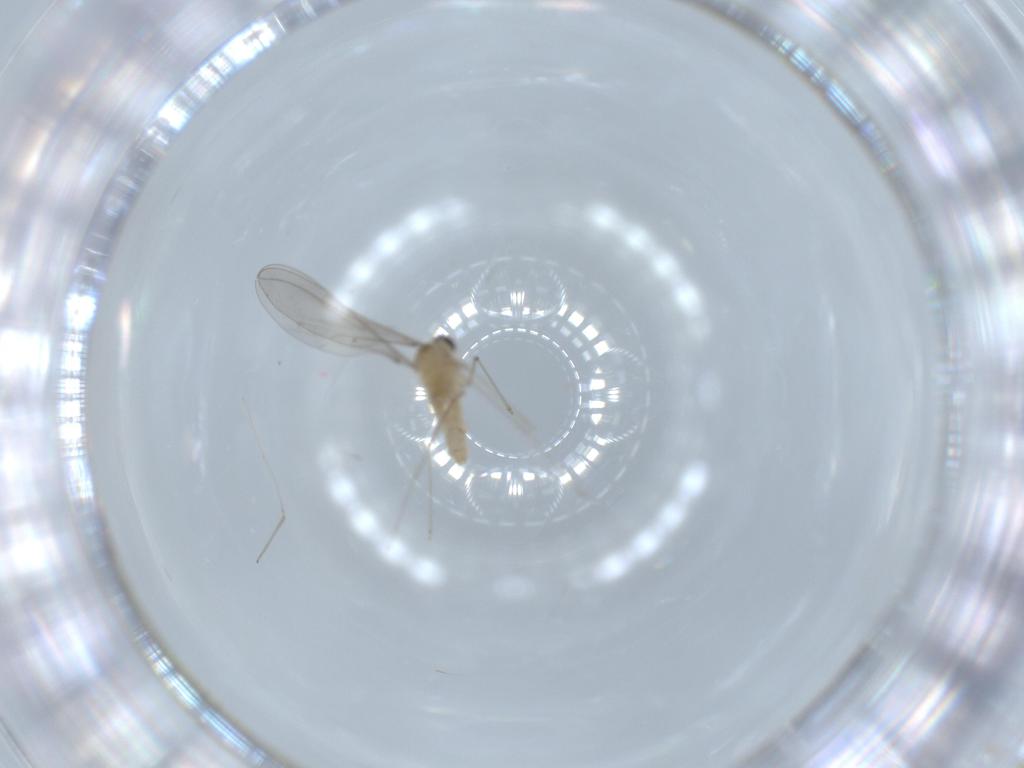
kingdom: Animalia
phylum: Arthropoda
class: Insecta
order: Diptera
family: Cecidomyiidae
